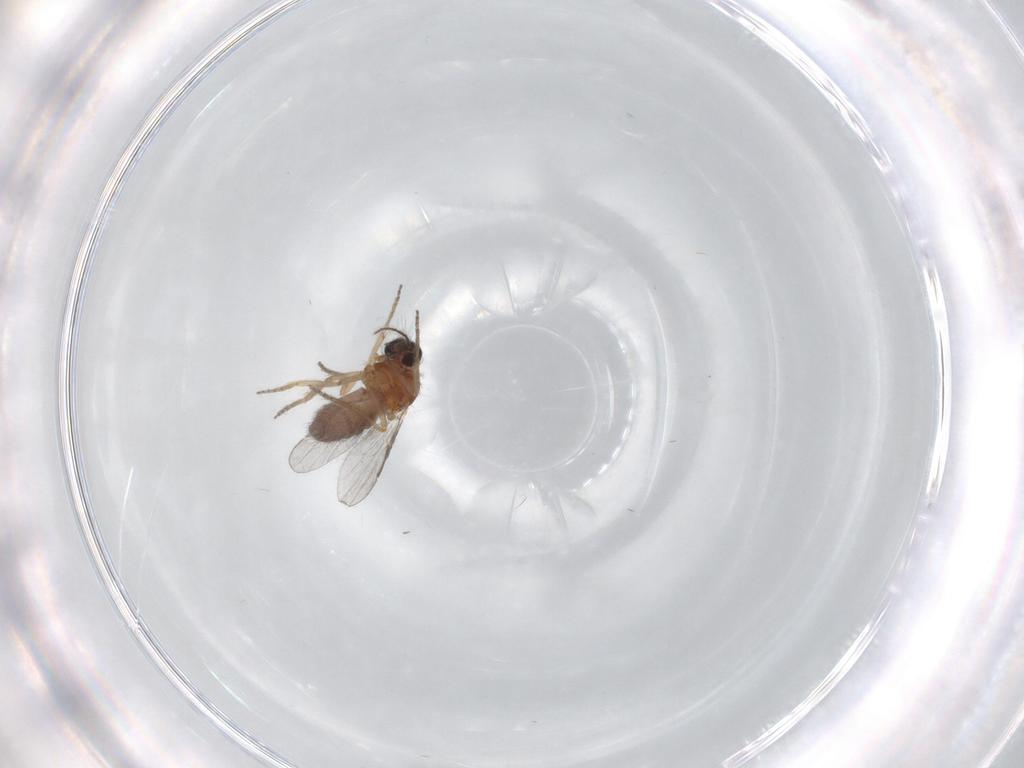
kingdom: Animalia
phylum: Arthropoda
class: Insecta
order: Diptera
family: Ceratopogonidae
